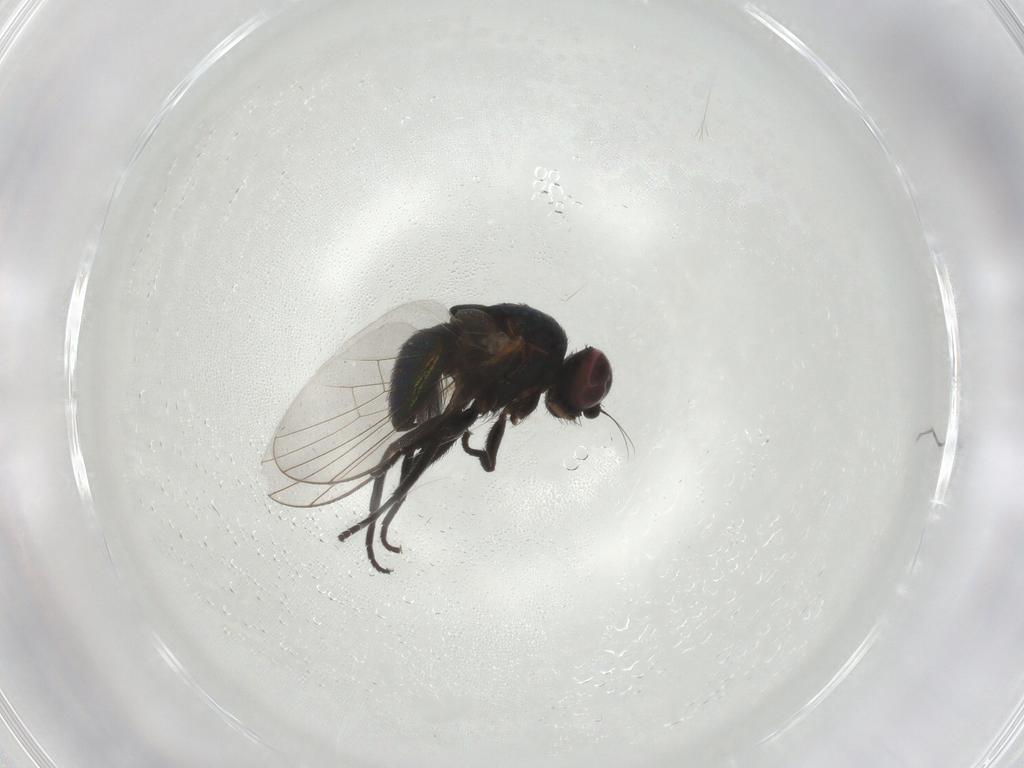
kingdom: Animalia
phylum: Arthropoda
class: Insecta
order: Diptera
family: Agromyzidae
